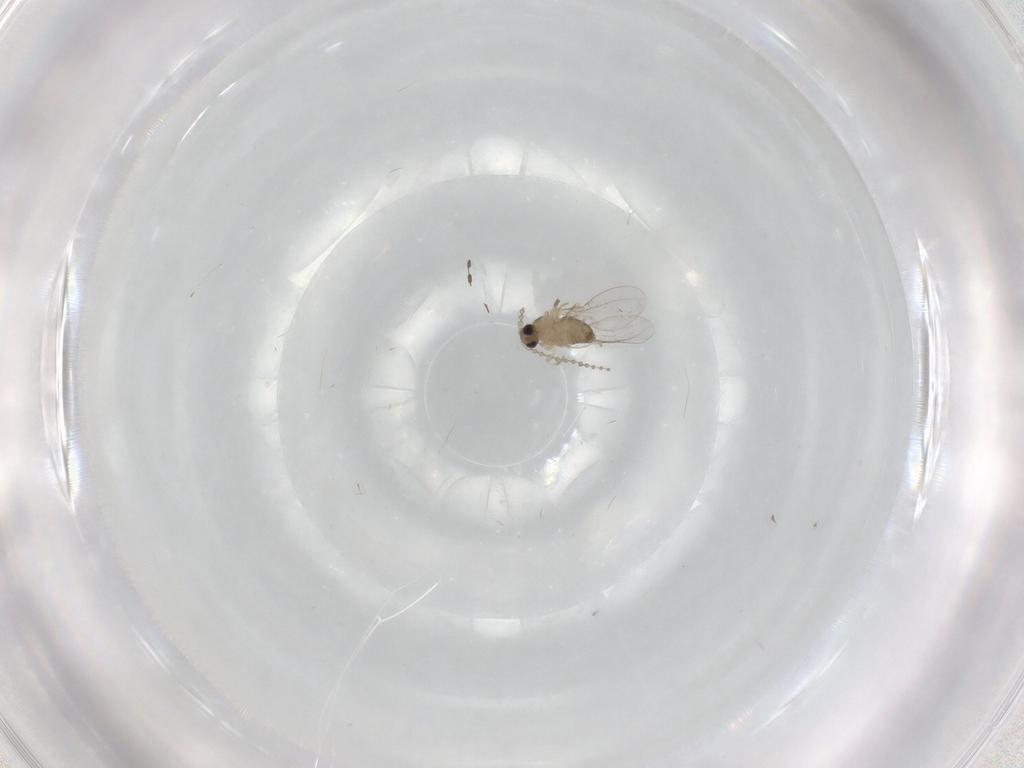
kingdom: Animalia
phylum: Arthropoda
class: Insecta
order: Diptera
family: Cecidomyiidae
